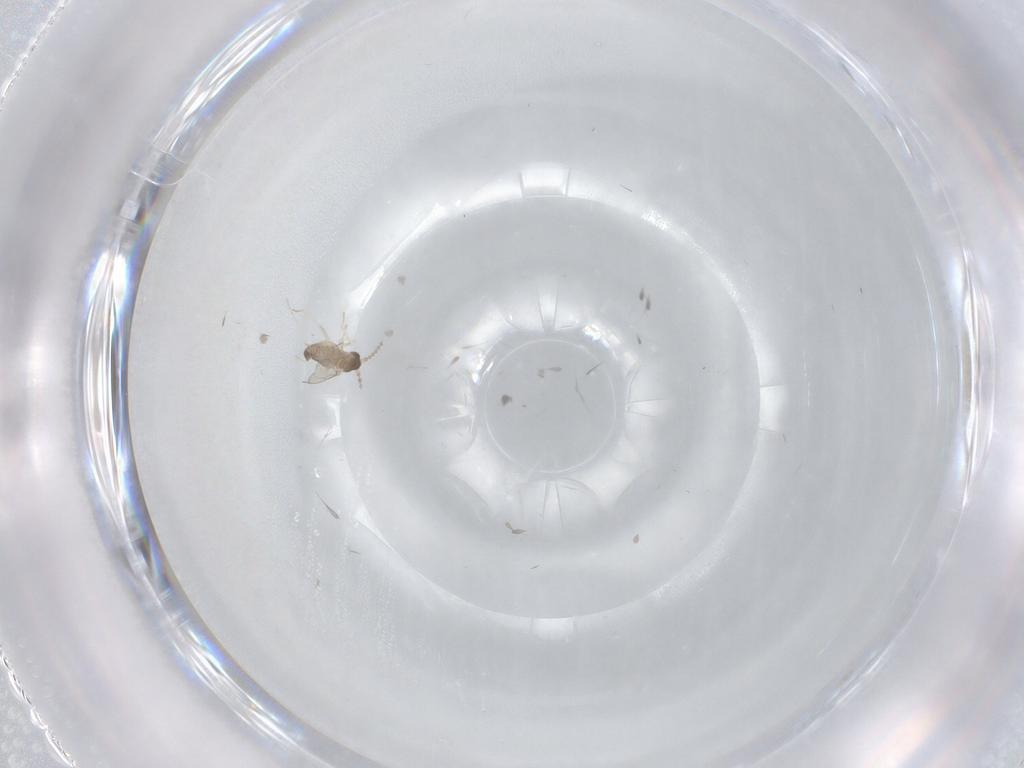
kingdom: Animalia
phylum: Arthropoda
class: Insecta
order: Diptera
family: Cecidomyiidae
